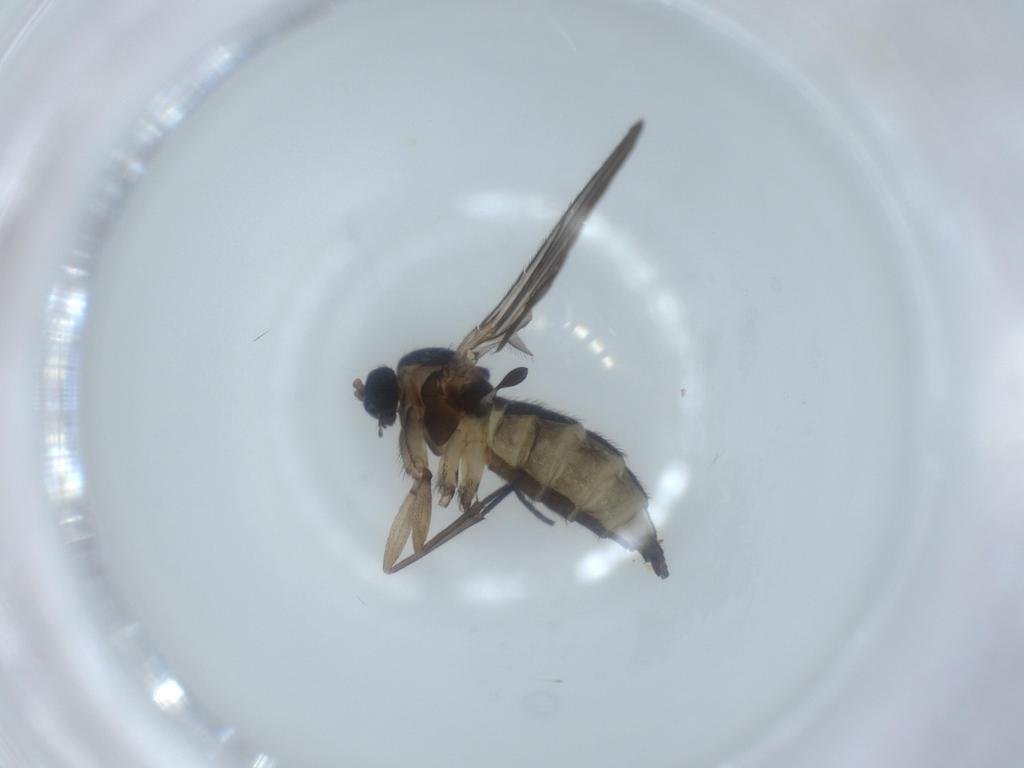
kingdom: Animalia
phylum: Arthropoda
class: Insecta
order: Diptera
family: Sciaridae
